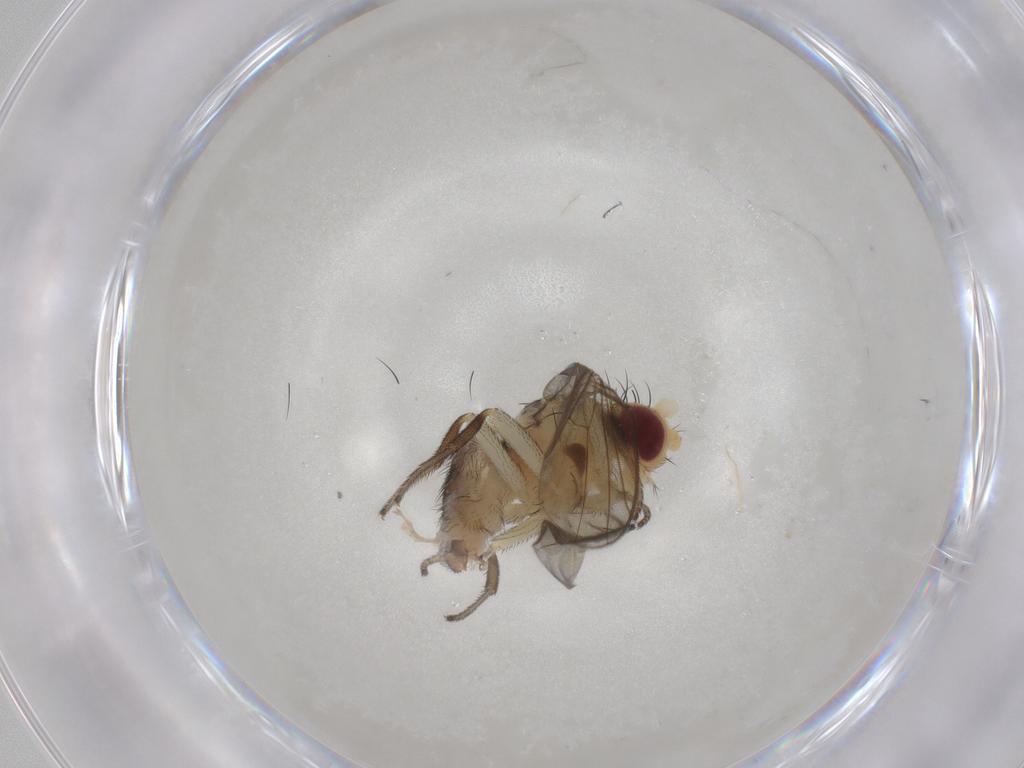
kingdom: Animalia
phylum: Arthropoda
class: Insecta
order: Diptera
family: Agromyzidae
